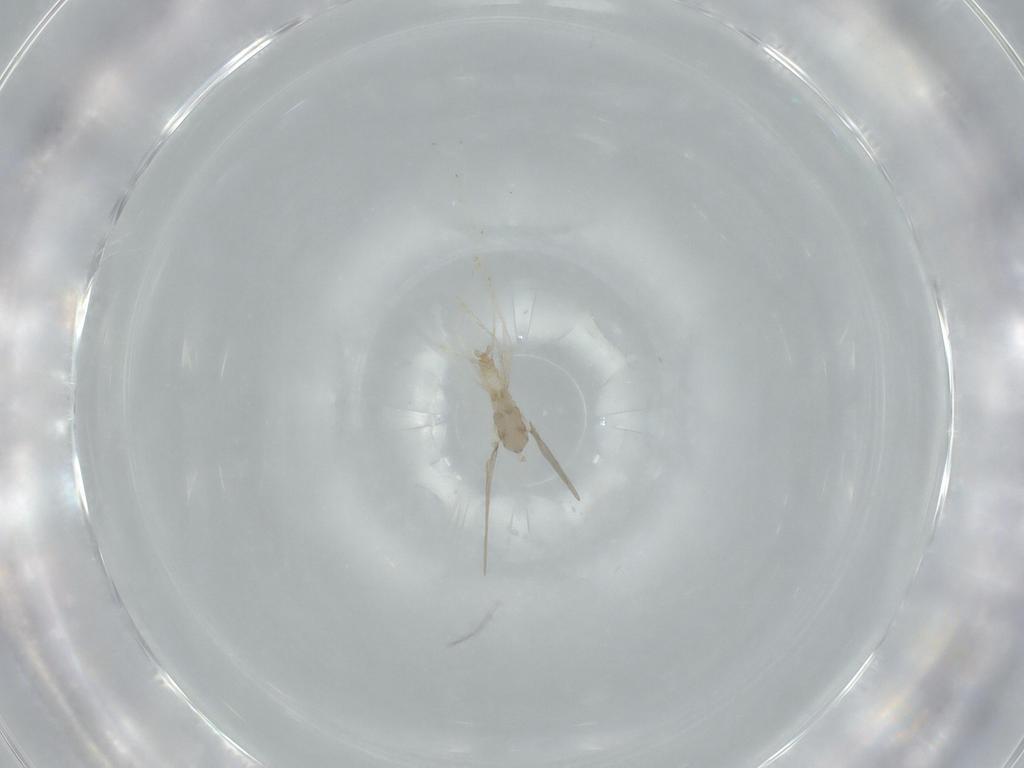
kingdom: Animalia
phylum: Arthropoda
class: Insecta
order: Diptera
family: Cecidomyiidae
